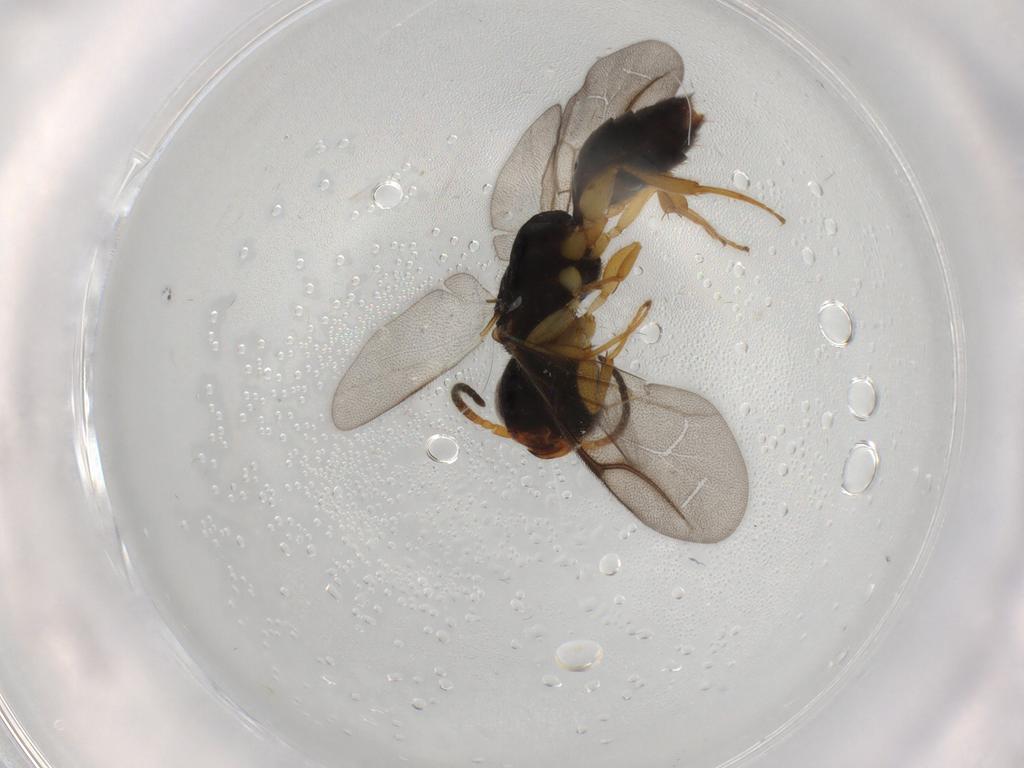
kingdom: Animalia
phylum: Arthropoda
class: Insecta
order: Hymenoptera
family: Bethylidae
